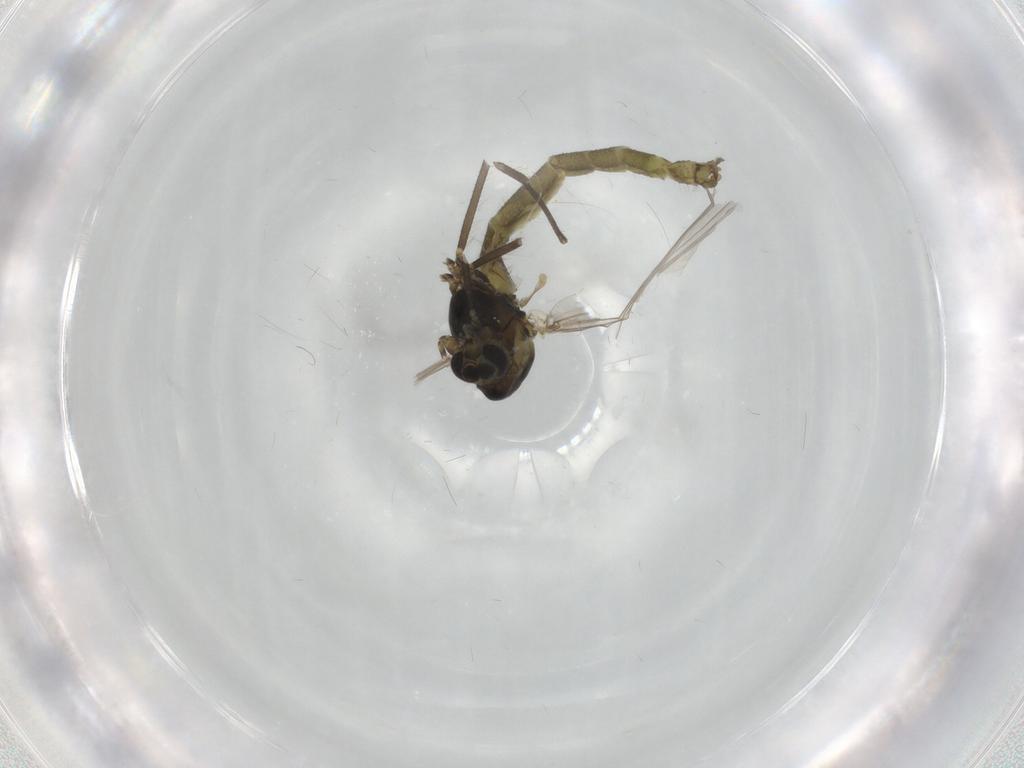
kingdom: Animalia
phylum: Arthropoda
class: Insecta
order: Diptera
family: Chironomidae
